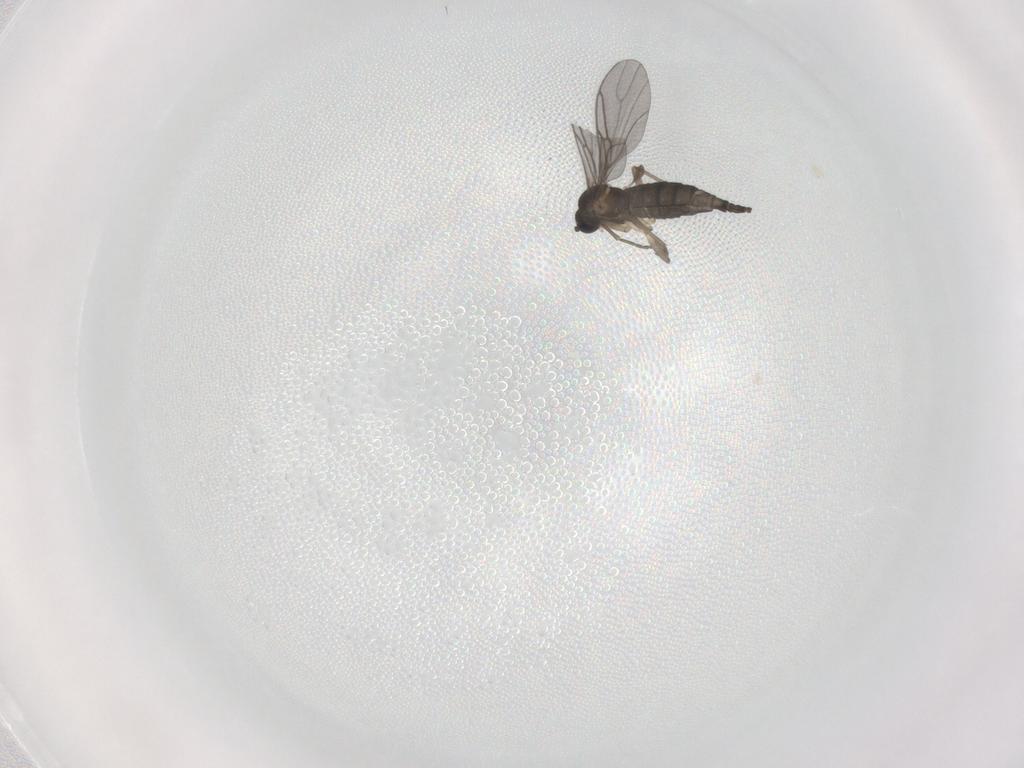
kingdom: Animalia
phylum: Arthropoda
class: Insecta
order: Diptera
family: Sciaridae
